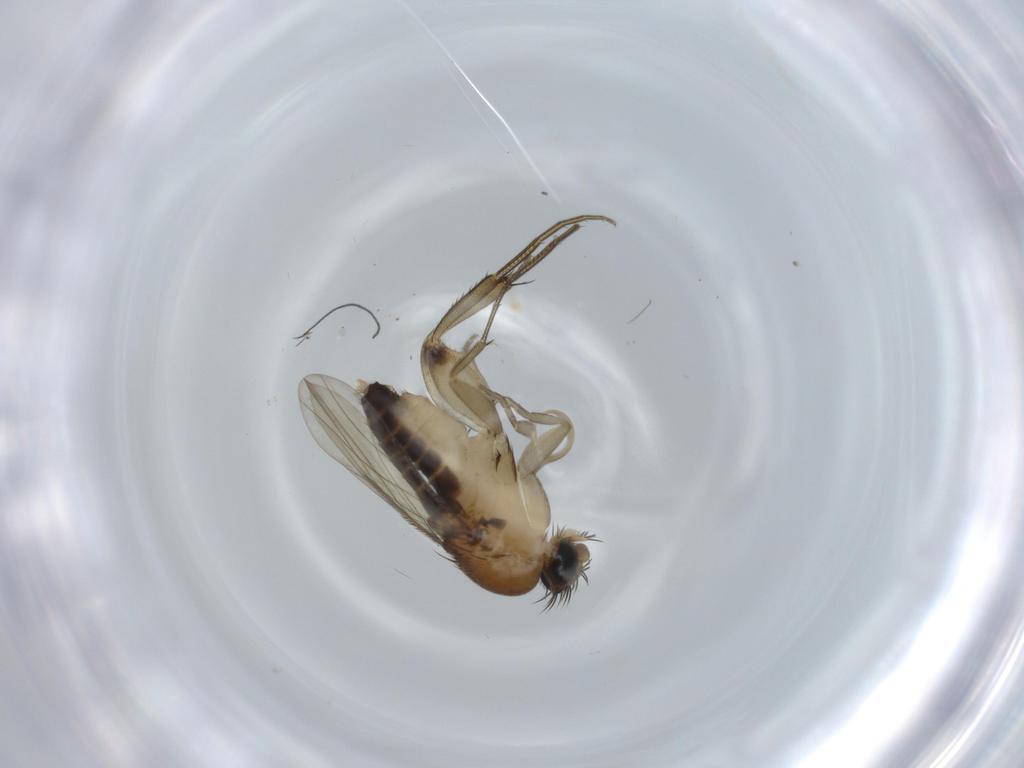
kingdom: Animalia
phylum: Arthropoda
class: Insecta
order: Diptera
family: Phoridae
